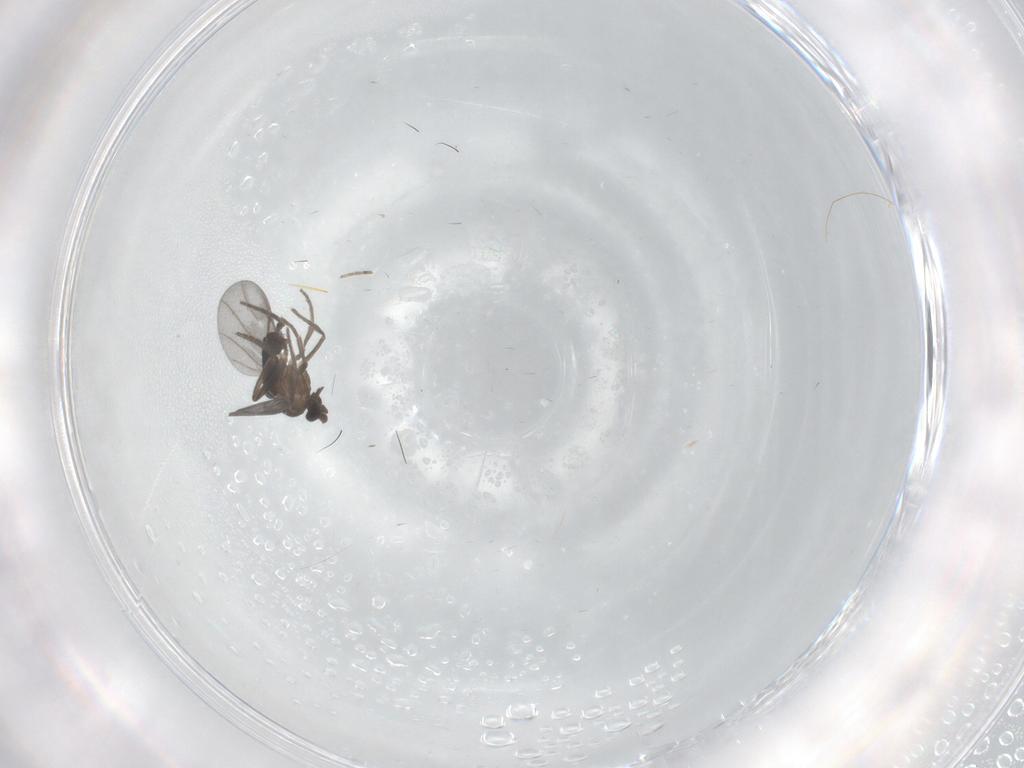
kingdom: Animalia
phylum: Arthropoda
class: Insecta
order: Diptera
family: Phoridae
